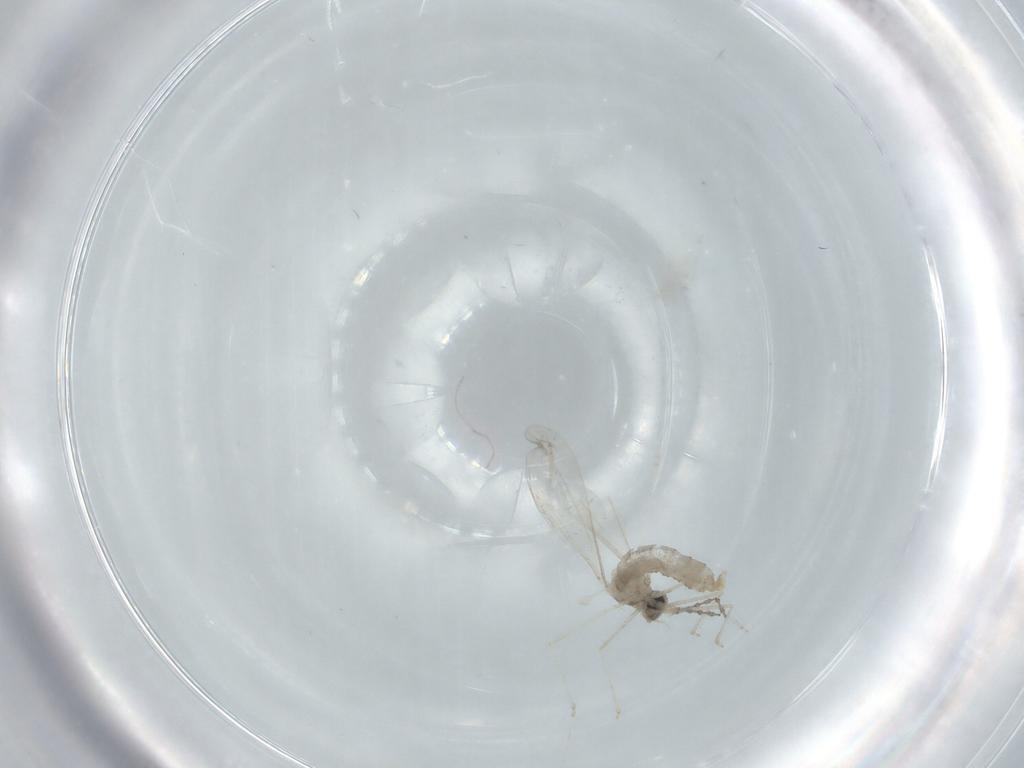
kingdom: Animalia
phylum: Arthropoda
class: Insecta
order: Diptera
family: Cecidomyiidae
